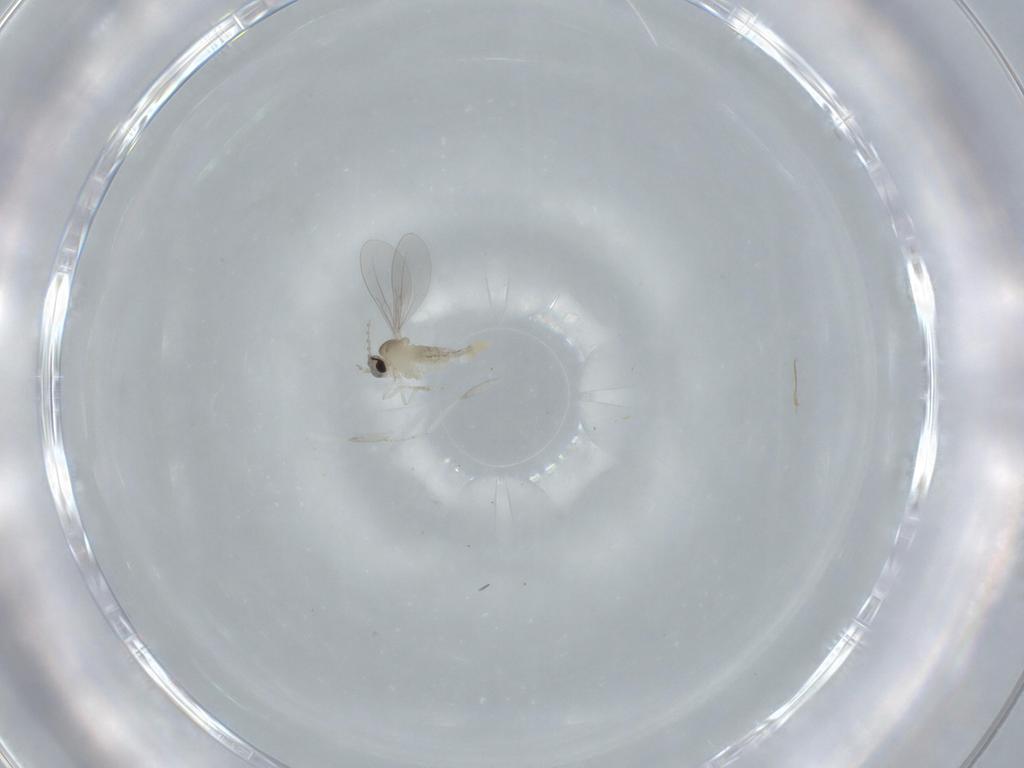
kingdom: Animalia
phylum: Arthropoda
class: Insecta
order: Diptera
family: Cecidomyiidae
